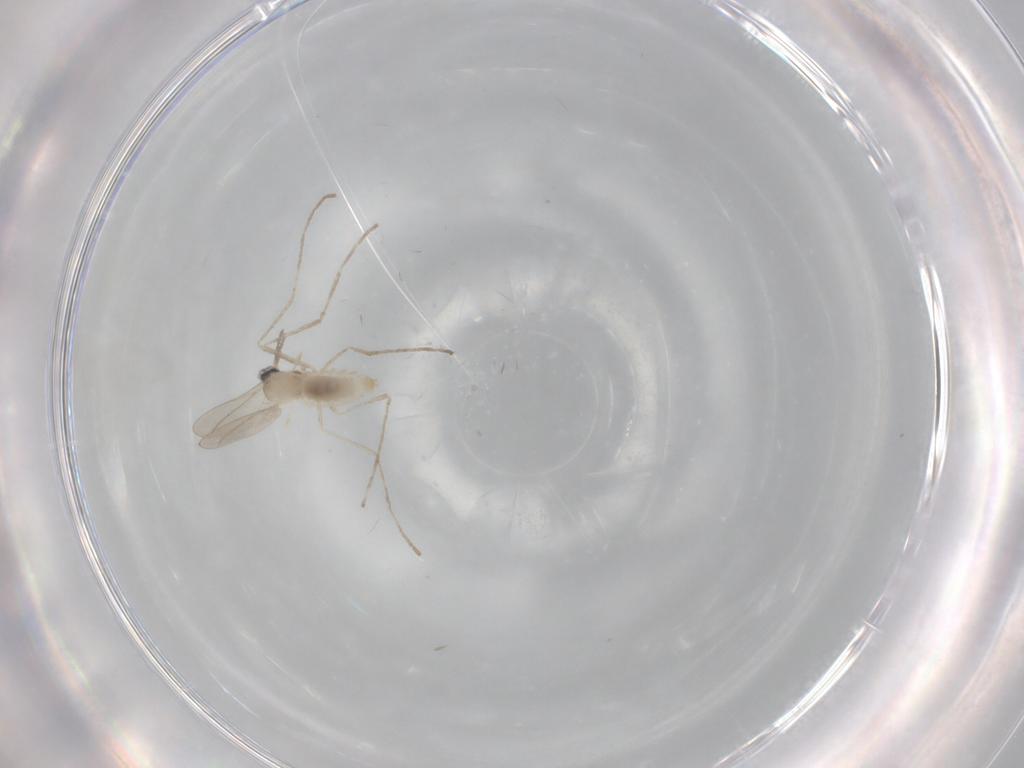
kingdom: Animalia
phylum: Arthropoda
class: Insecta
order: Diptera
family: Cecidomyiidae
